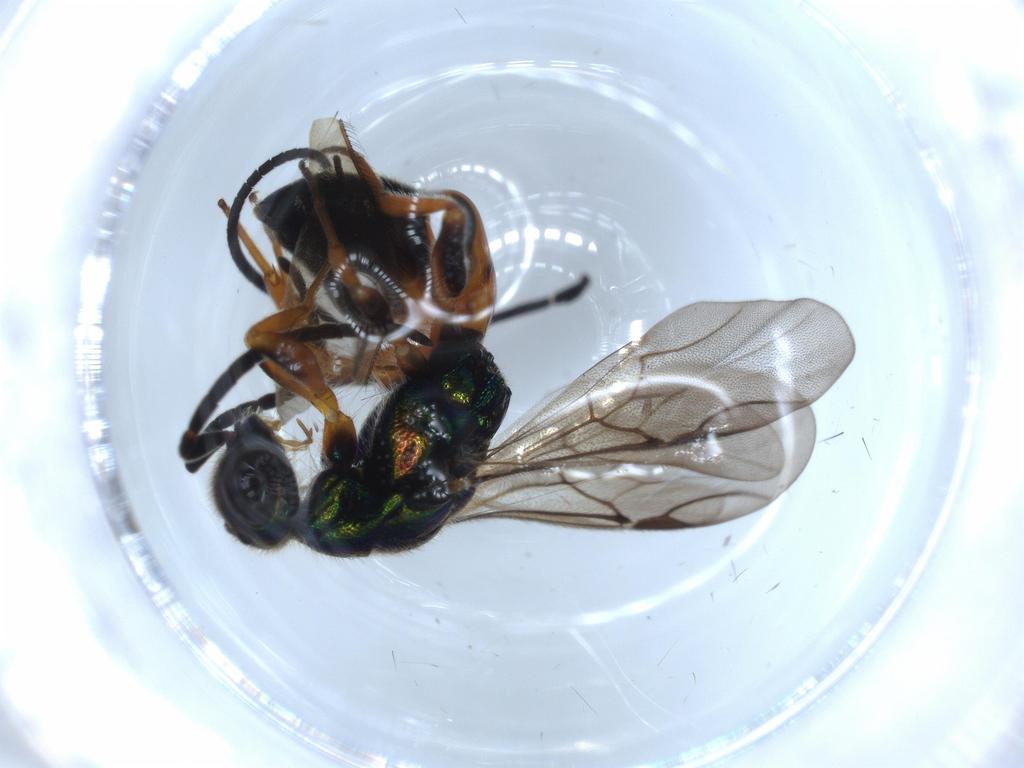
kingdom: Animalia
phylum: Arthropoda
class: Insecta
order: Hymenoptera
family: Chrysididae
